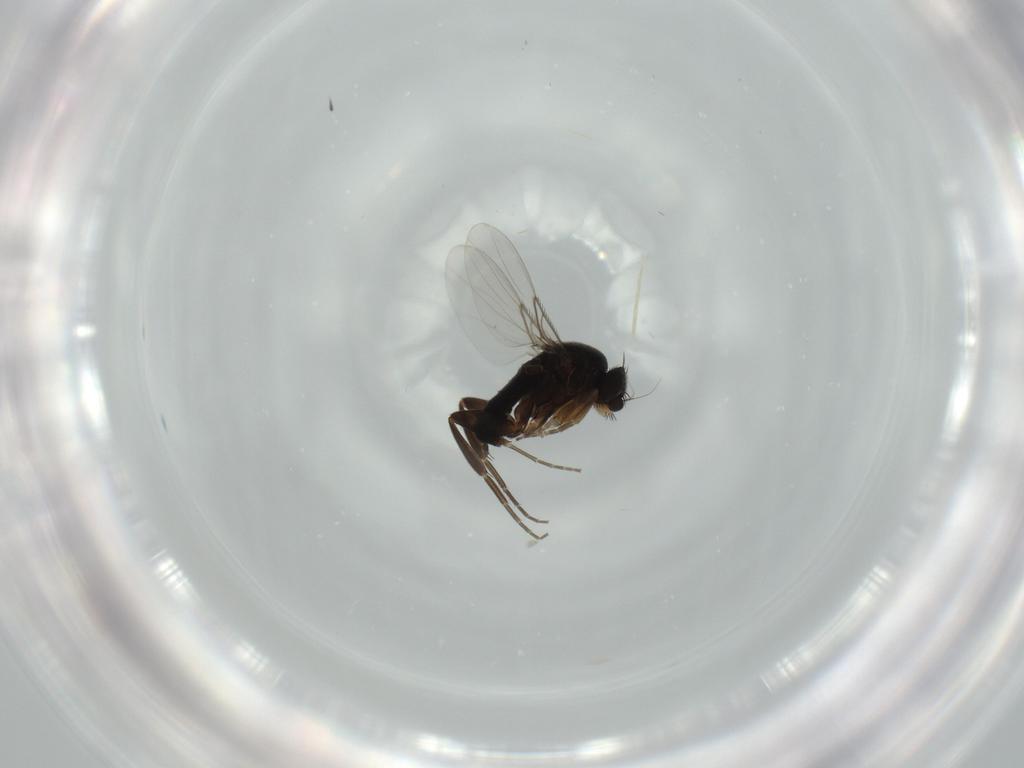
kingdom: Animalia
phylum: Arthropoda
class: Insecta
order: Diptera
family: Phoridae
